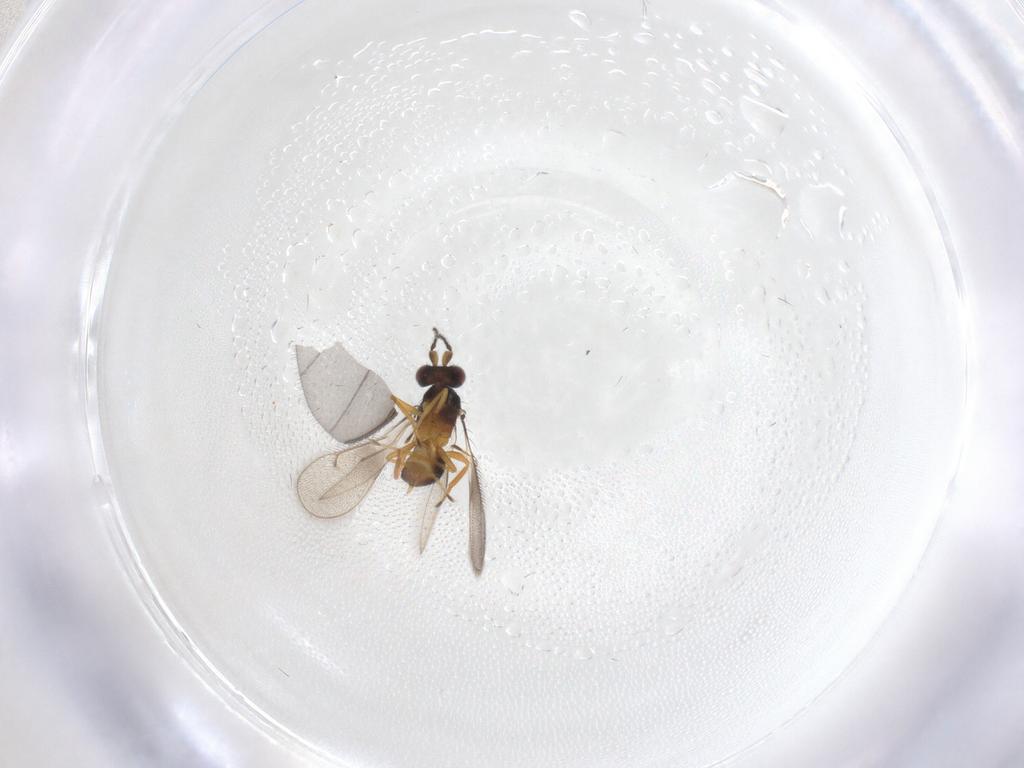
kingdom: Animalia
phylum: Arthropoda
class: Insecta
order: Hymenoptera
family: Eulophidae
